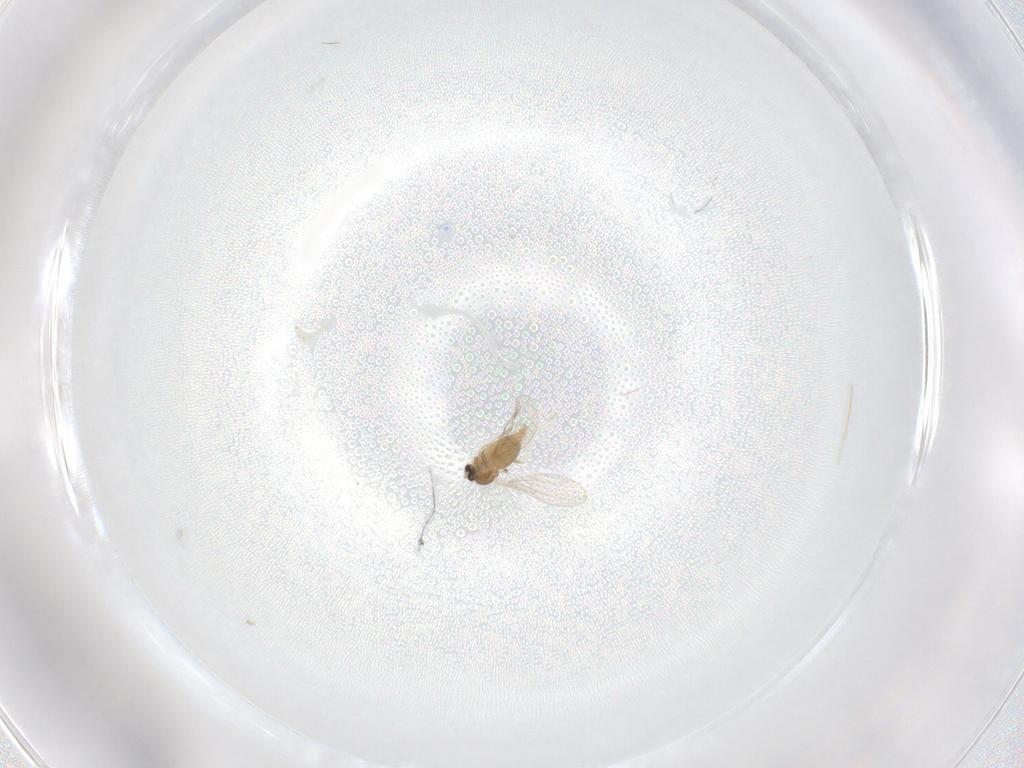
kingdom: Animalia
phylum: Arthropoda
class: Insecta
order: Diptera
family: Cecidomyiidae
